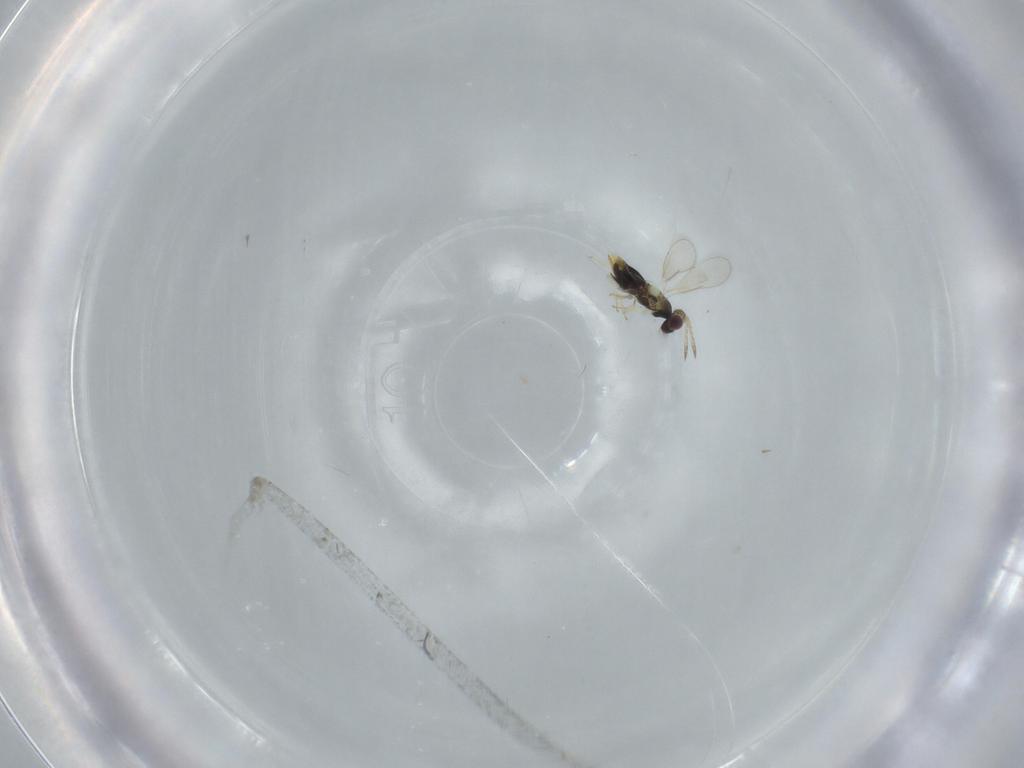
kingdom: Animalia
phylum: Arthropoda
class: Insecta
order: Hymenoptera
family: Aphelinidae
